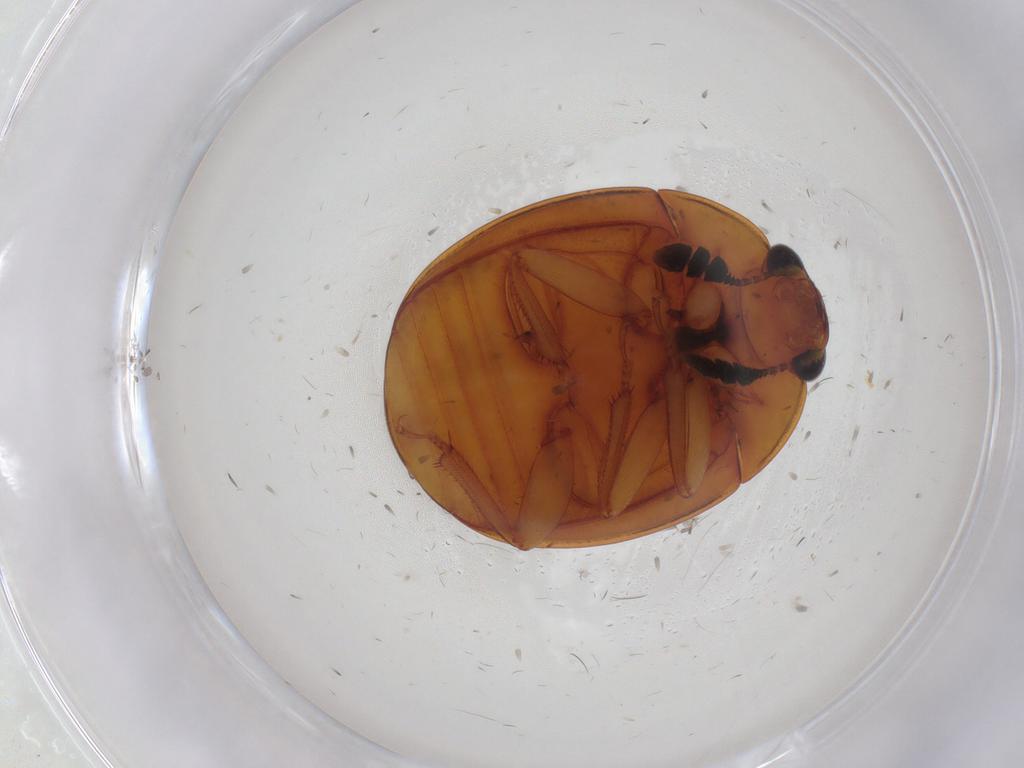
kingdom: Animalia
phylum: Arthropoda
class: Insecta
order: Coleoptera
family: Nitidulidae
